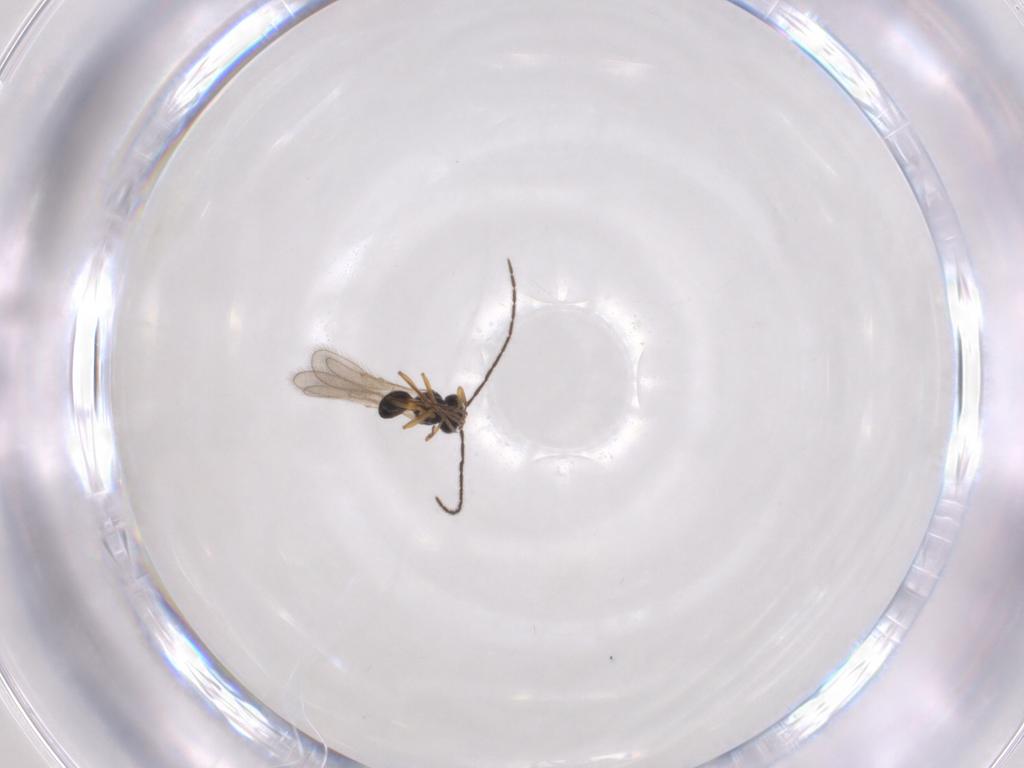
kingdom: Animalia
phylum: Arthropoda
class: Insecta
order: Hymenoptera
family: Scelionidae
